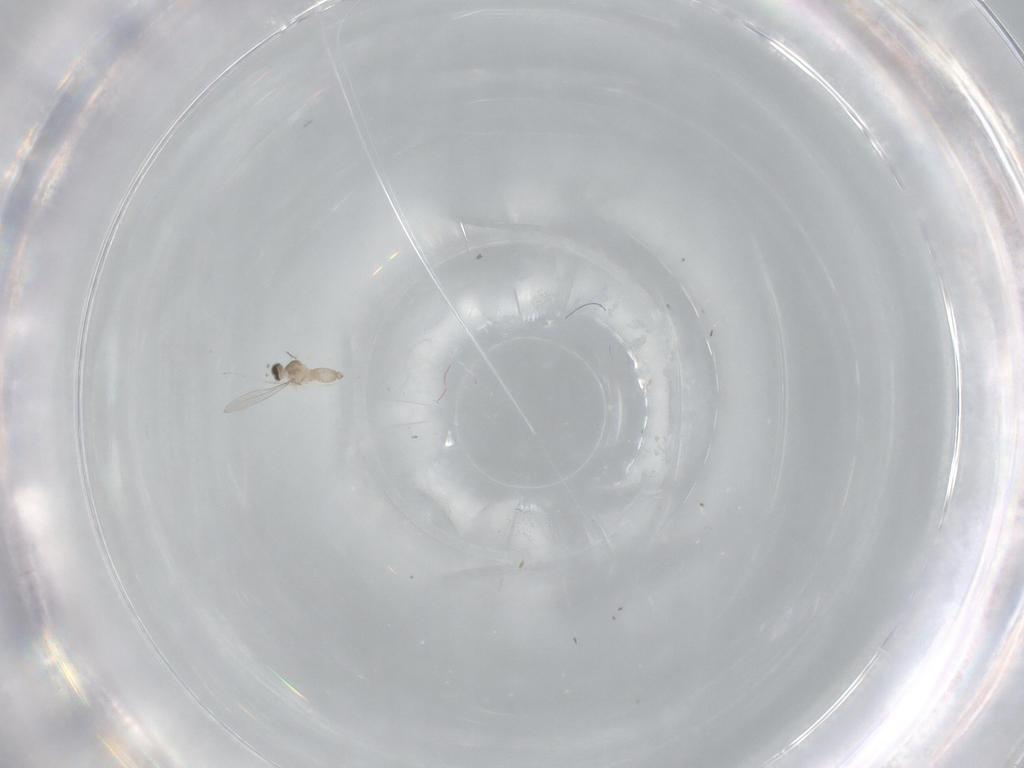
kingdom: Animalia
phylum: Arthropoda
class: Insecta
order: Diptera
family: Cecidomyiidae
